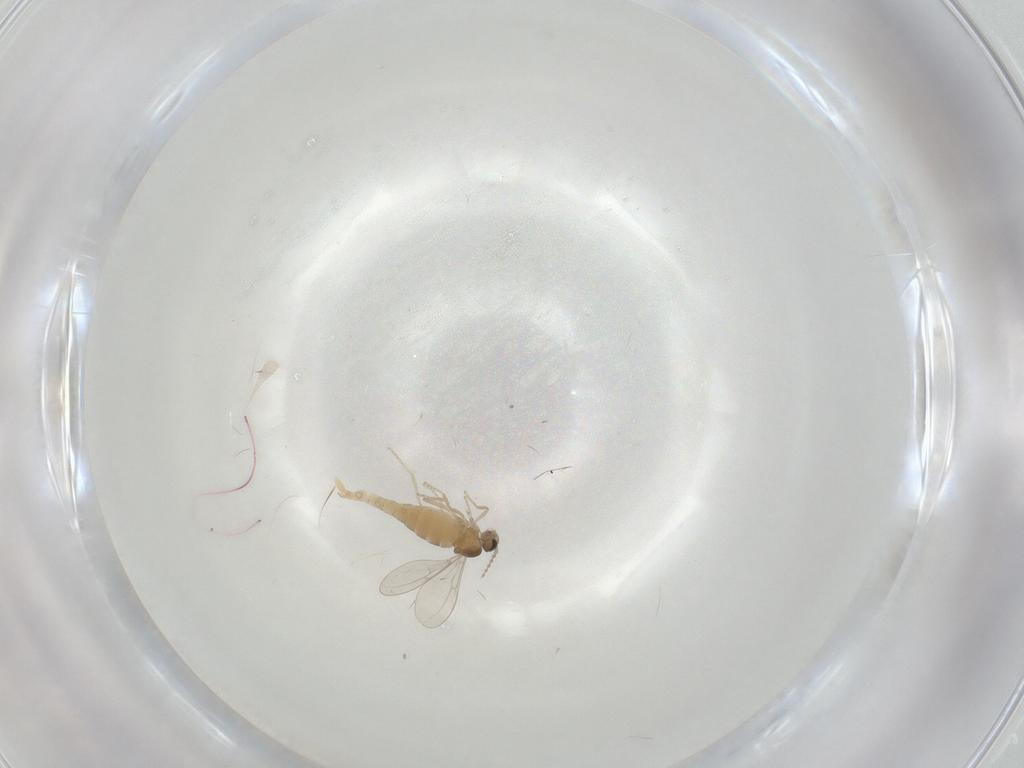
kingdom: Animalia
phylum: Arthropoda
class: Insecta
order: Diptera
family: Cecidomyiidae
